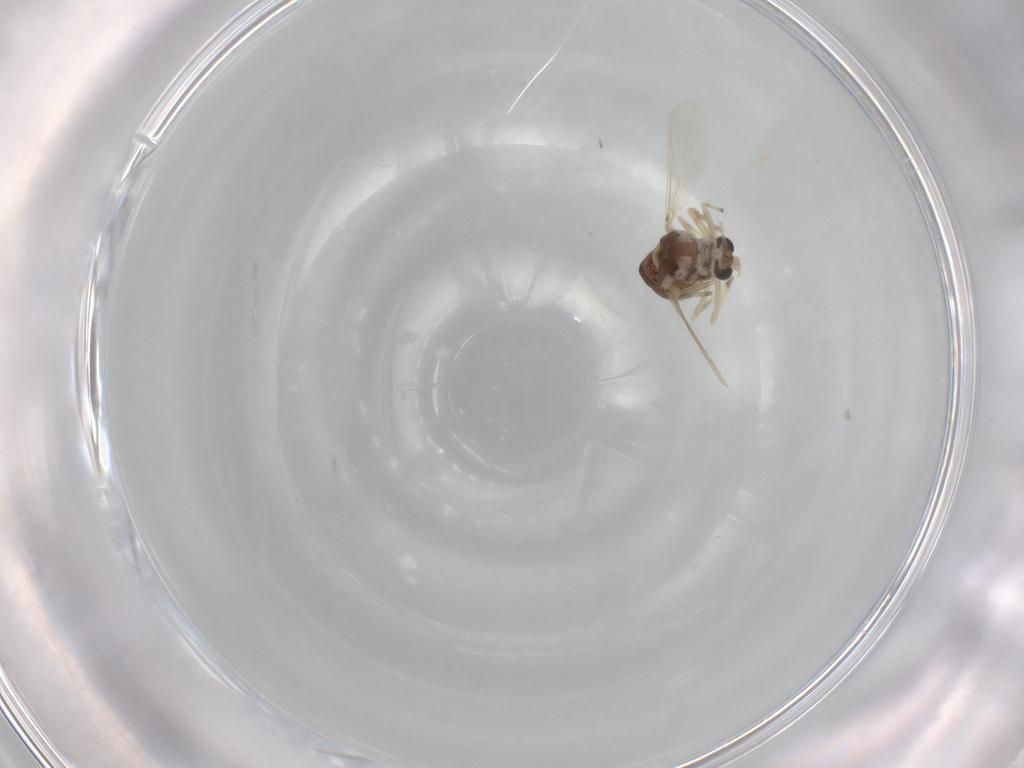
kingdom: Animalia
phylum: Arthropoda
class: Insecta
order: Diptera
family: Chironomidae
